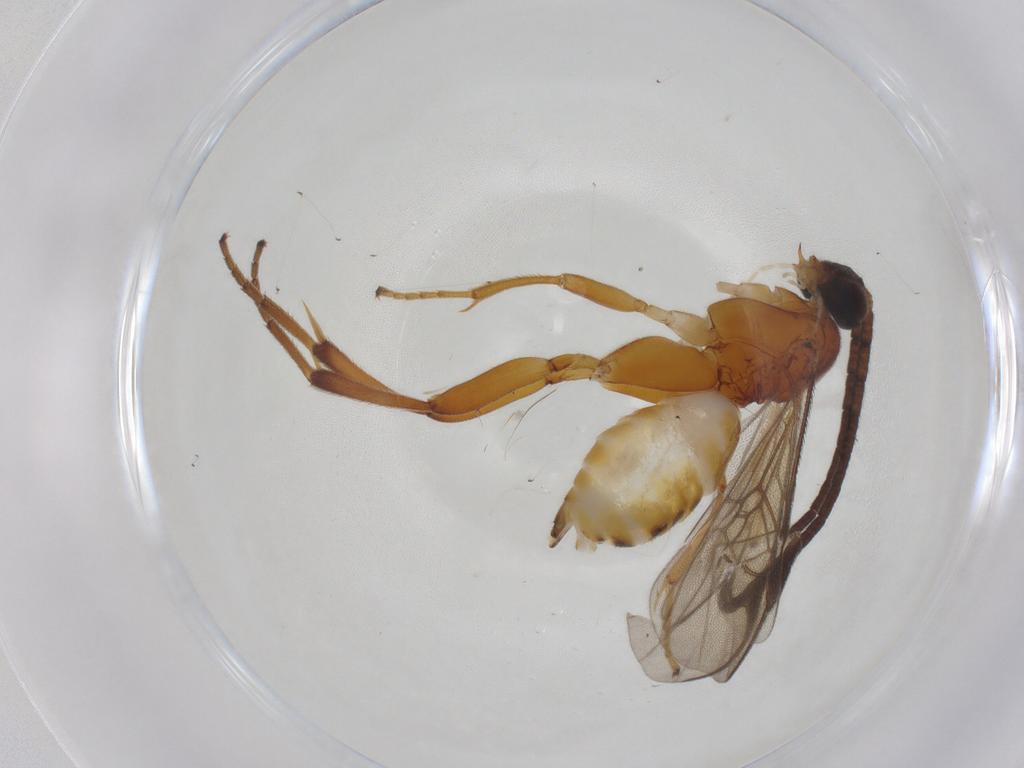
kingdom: Animalia
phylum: Arthropoda
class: Insecta
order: Hymenoptera
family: Braconidae
